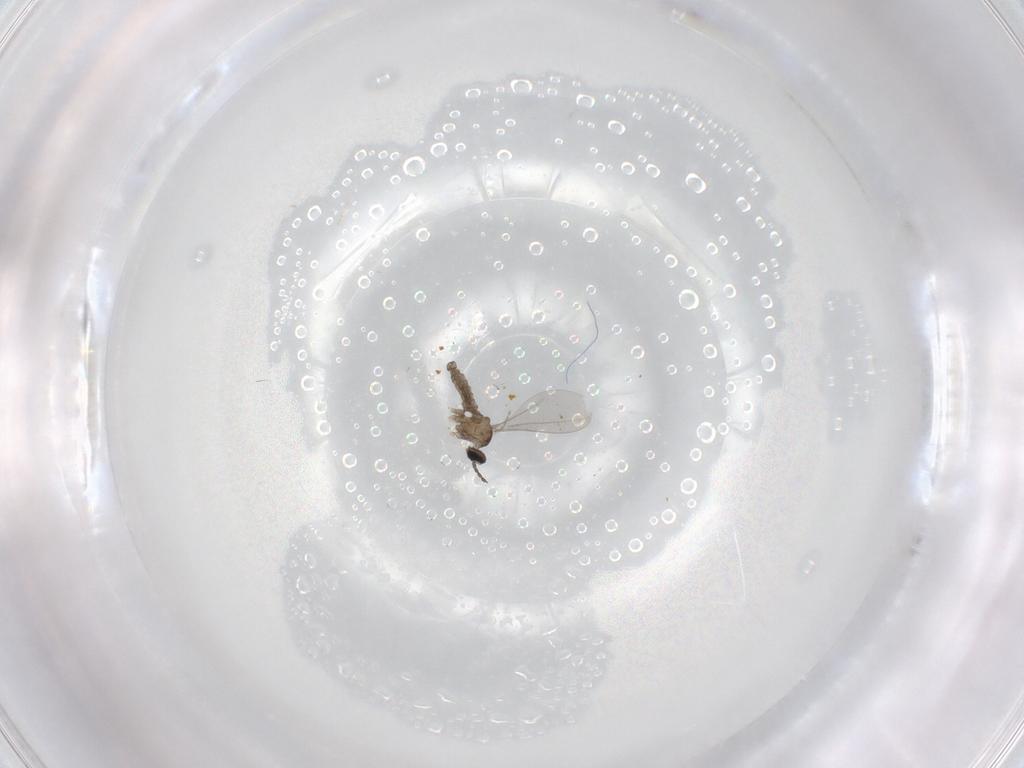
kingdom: Animalia
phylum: Arthropoda
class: Insecta
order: Diptera
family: Limoniidae
